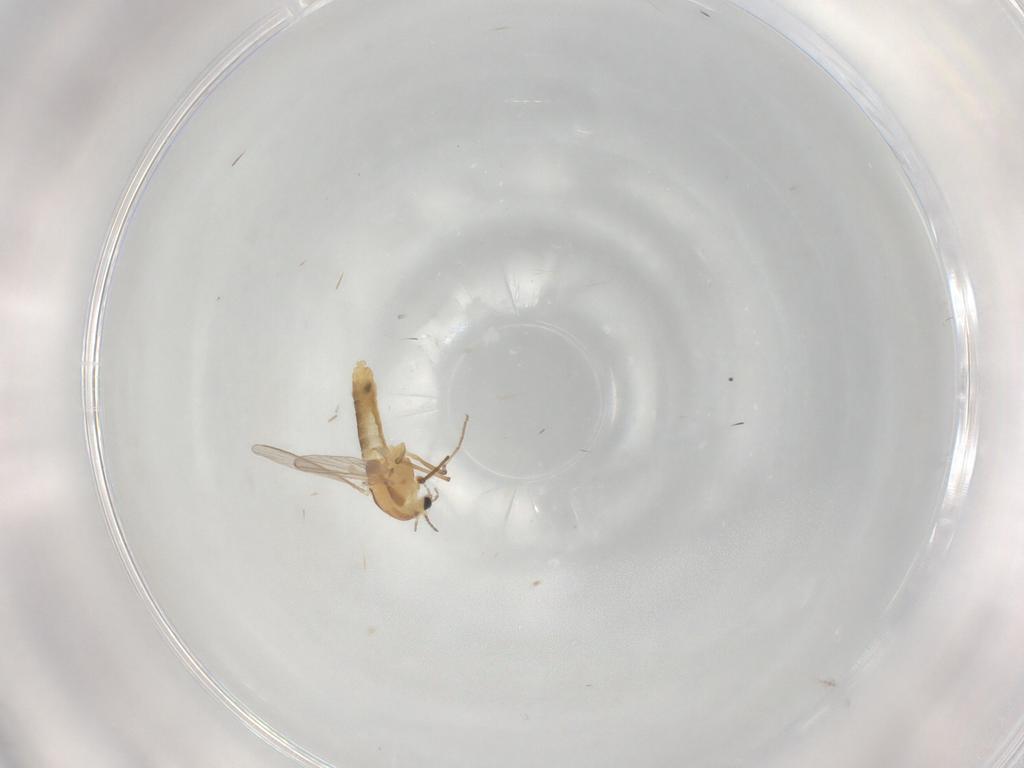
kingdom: Animalia
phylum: Arthropoda
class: Insecta
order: Diptera
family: Chironomidae
